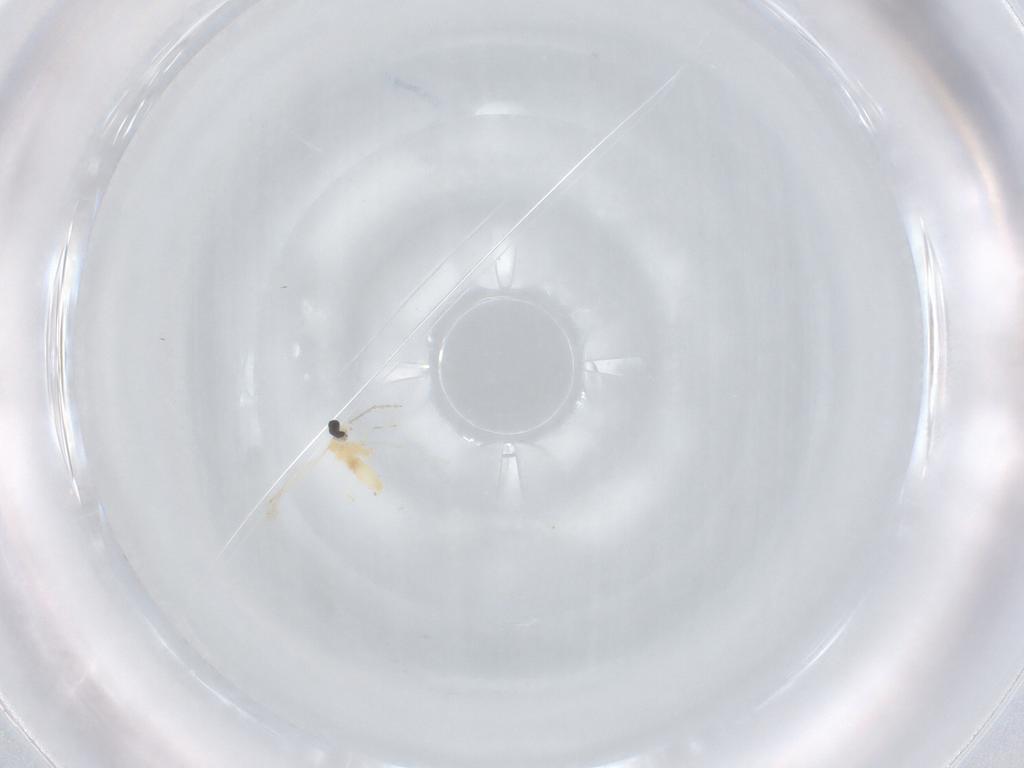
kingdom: Animalia
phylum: Arthropoda
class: Insecta
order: Diptera
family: Cecidomyiidae
